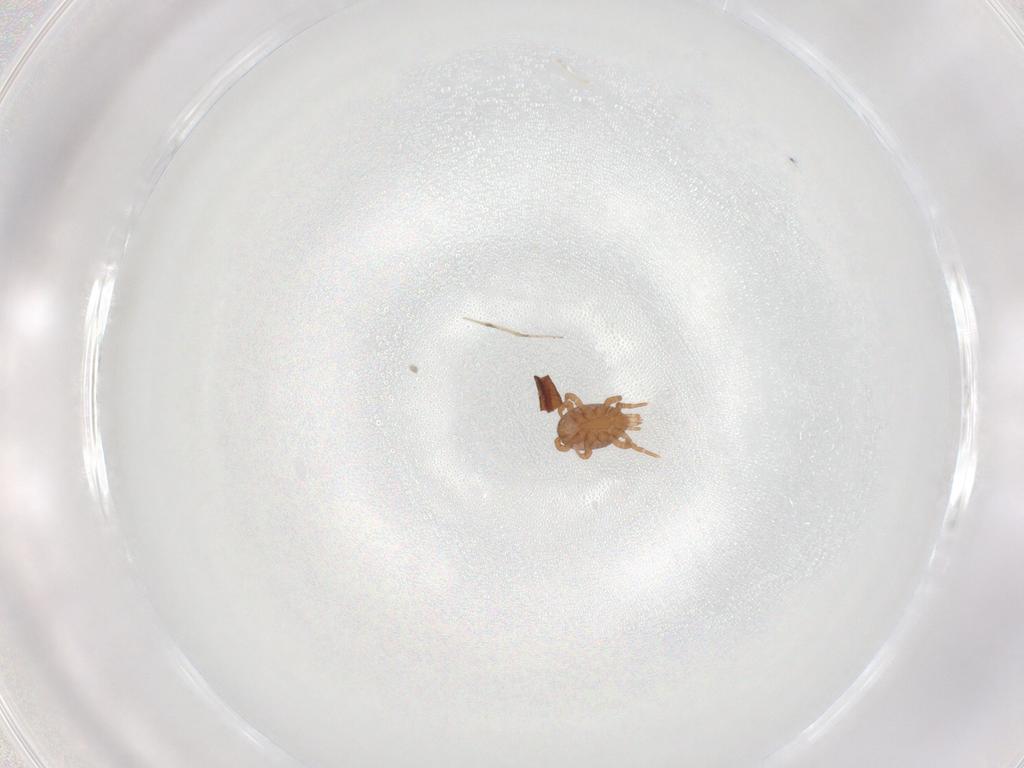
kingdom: Animalia
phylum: Arthropoda
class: Arachnida
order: Mesostigmata
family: Eviphididae
